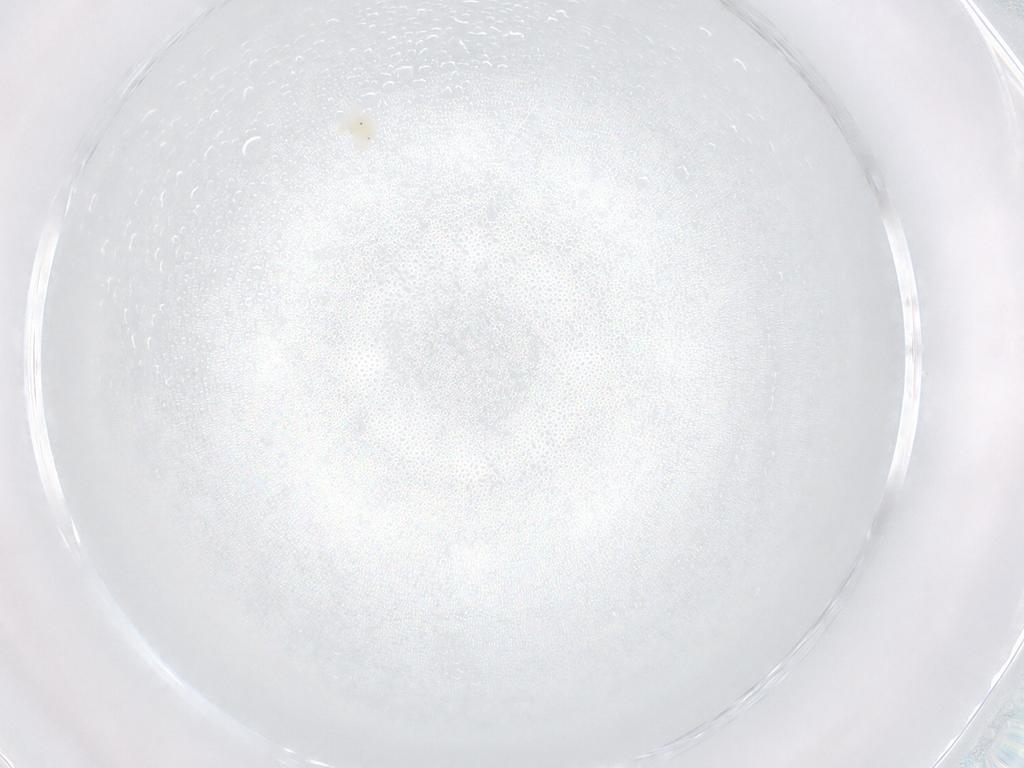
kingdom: Animalia
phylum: Arthropoda
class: Arachnida
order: Trombidiformes
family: Anystidae
